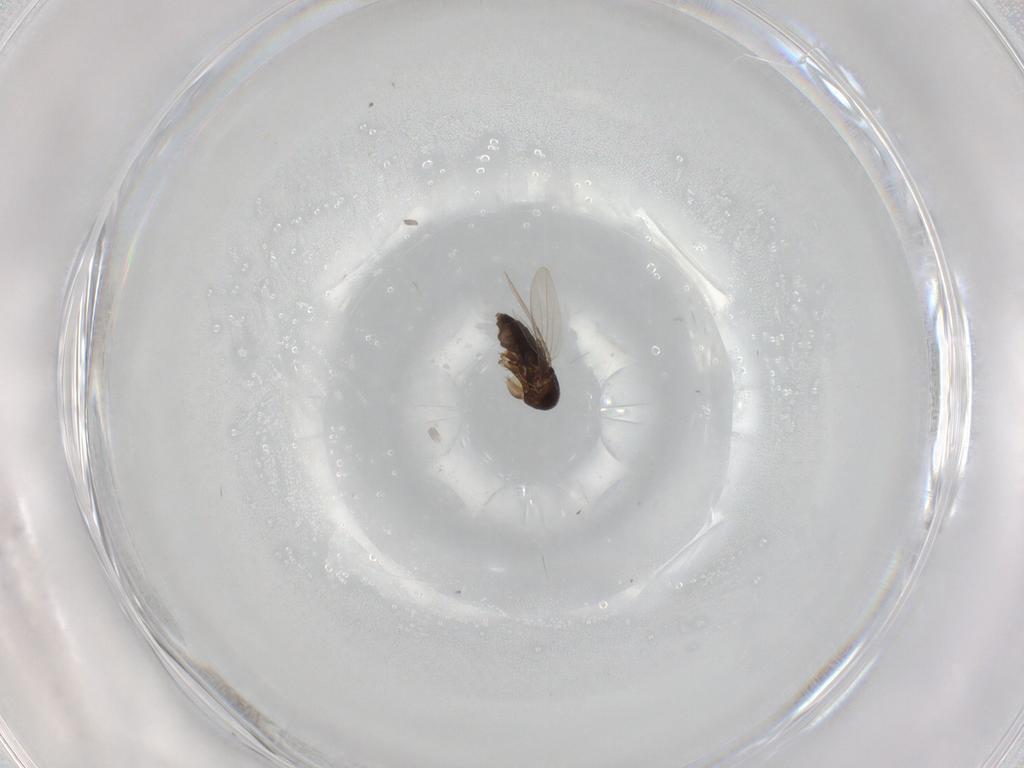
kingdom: Animalia
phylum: Arthropoda
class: Insecta
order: Diptera
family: Phoridae
